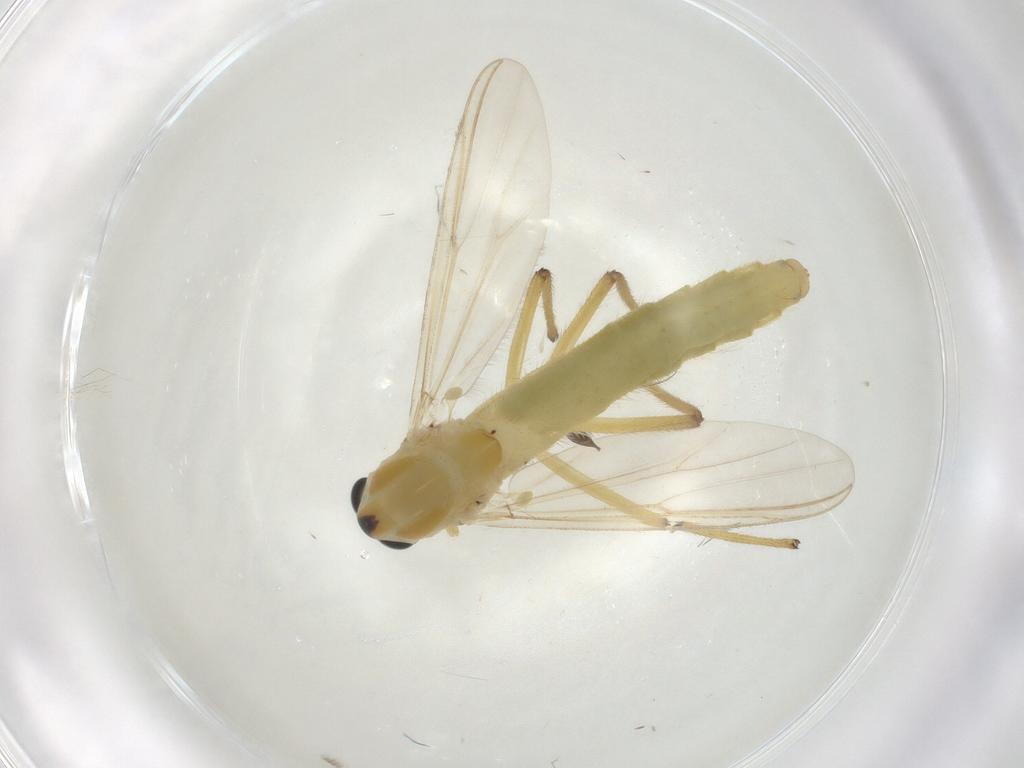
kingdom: Animalia
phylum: Arthropoda
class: Insecta
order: Diptera
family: Chironomidae
